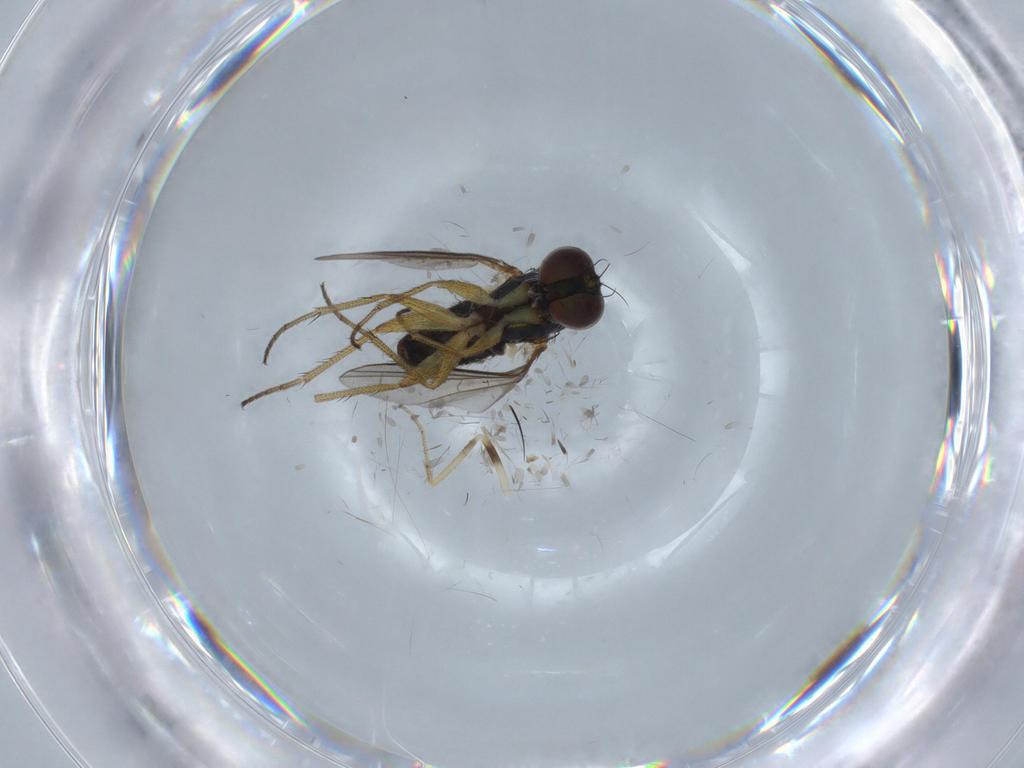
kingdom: Animalia
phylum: Arthropoda
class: Insecta
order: Diptera
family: Ceratopogonidae
